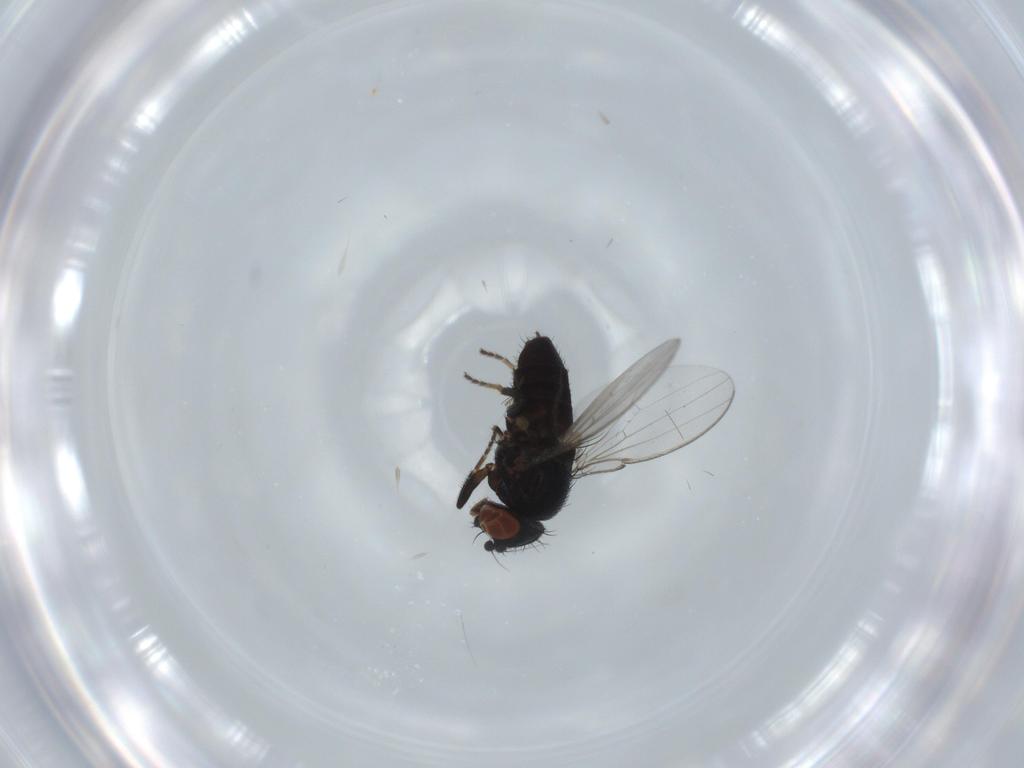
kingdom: Animalia
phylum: Arthropoda
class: Insecta
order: Diptera
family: Milichiidae
